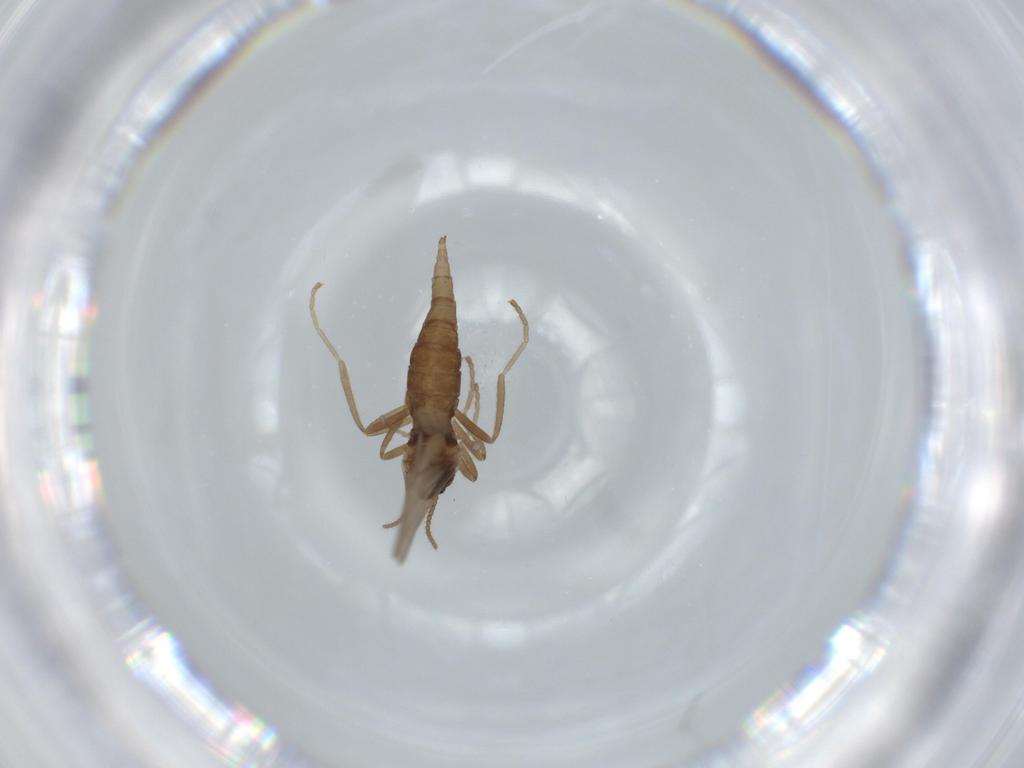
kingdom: Animalia
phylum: Arthropoda
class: Insecta
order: Diptera
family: Cecidomyiidae
